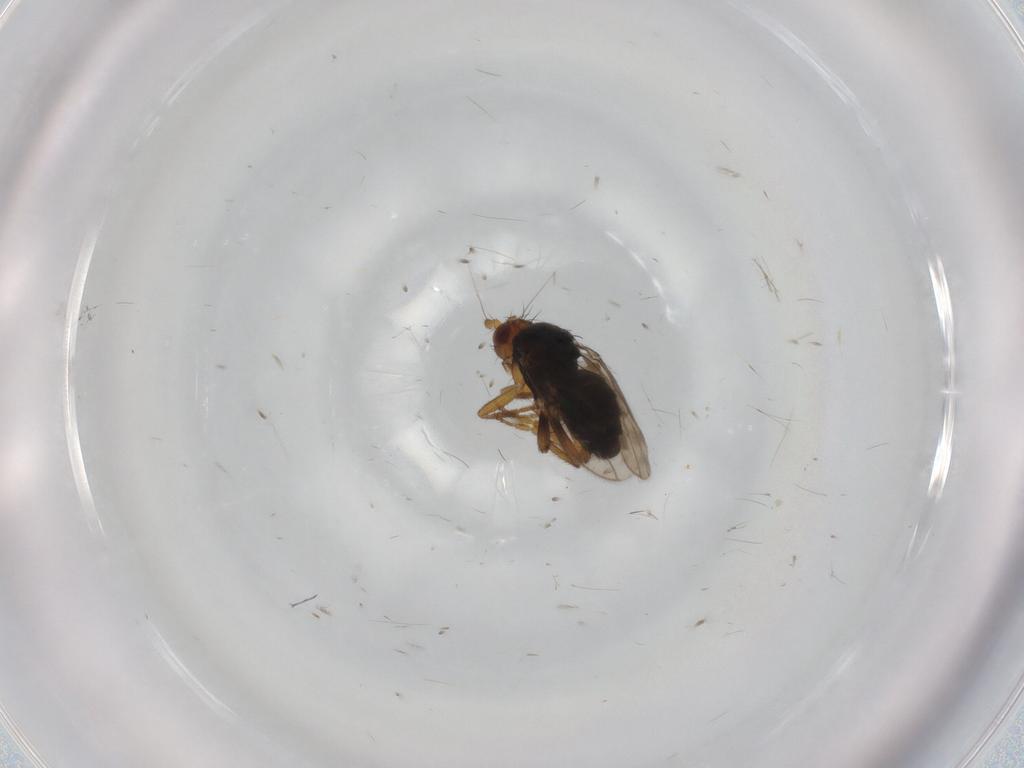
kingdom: Animalia
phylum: Arthropoda
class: Insecta
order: Diptera
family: Sphaeroceridae
